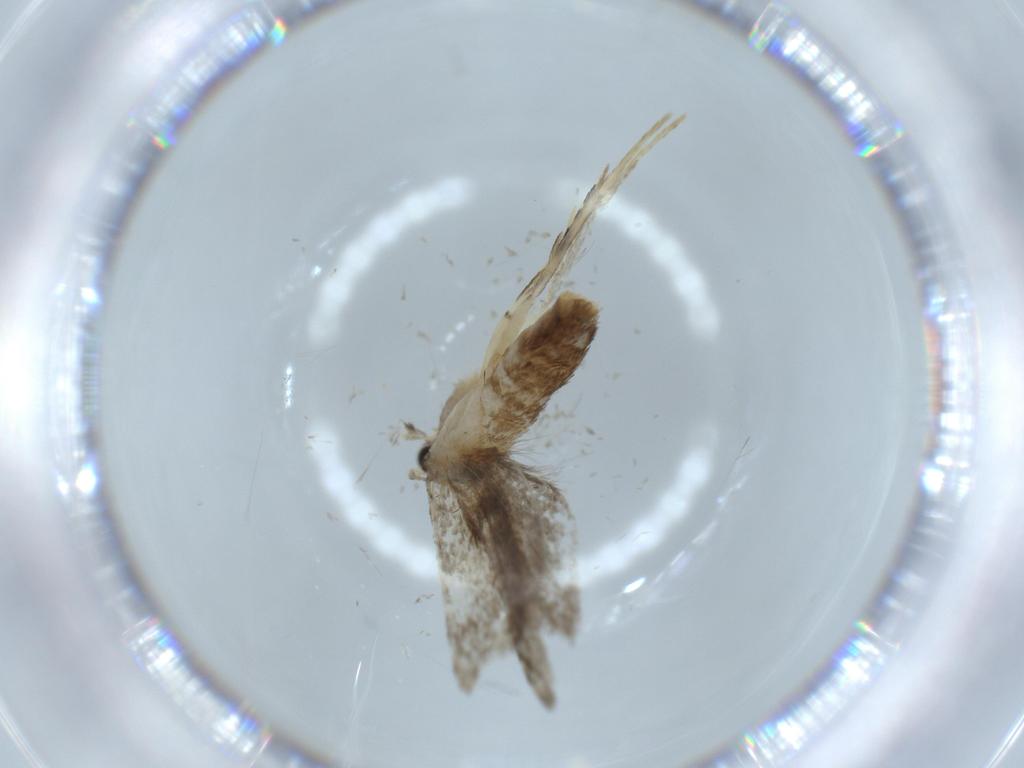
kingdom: Animalia
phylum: Arthropoda
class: Insecta
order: Lepidoptera
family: Tineidae
